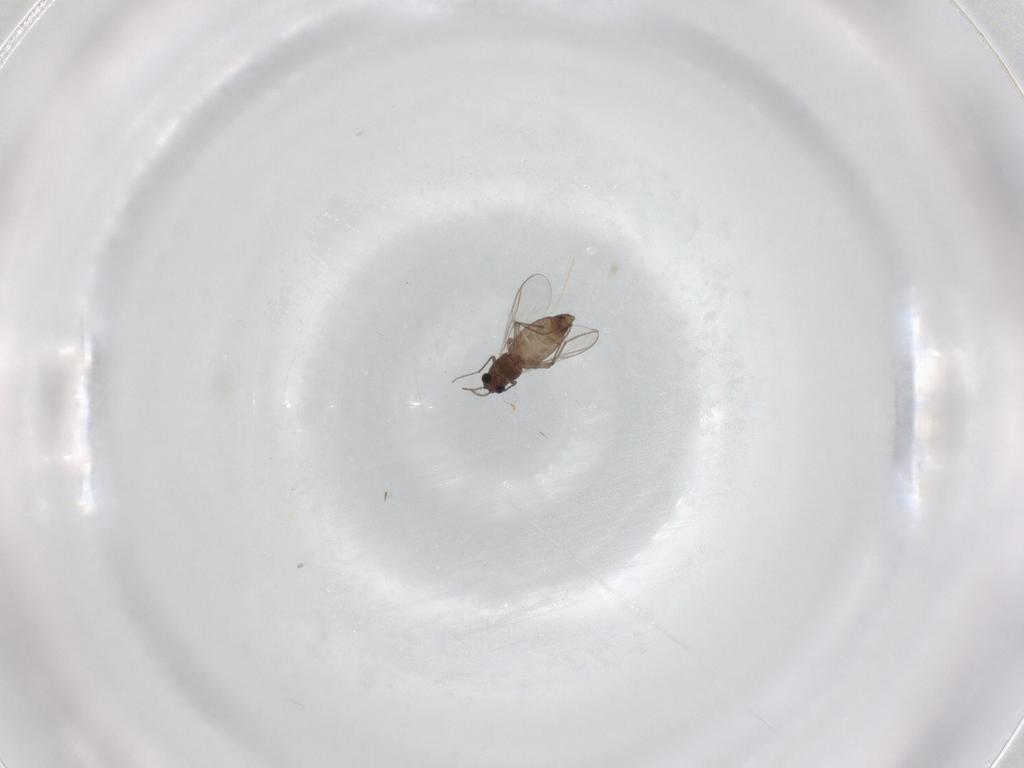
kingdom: Animalia
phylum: Arthropoda
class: Insecta
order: Diptera
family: Chironomidae
